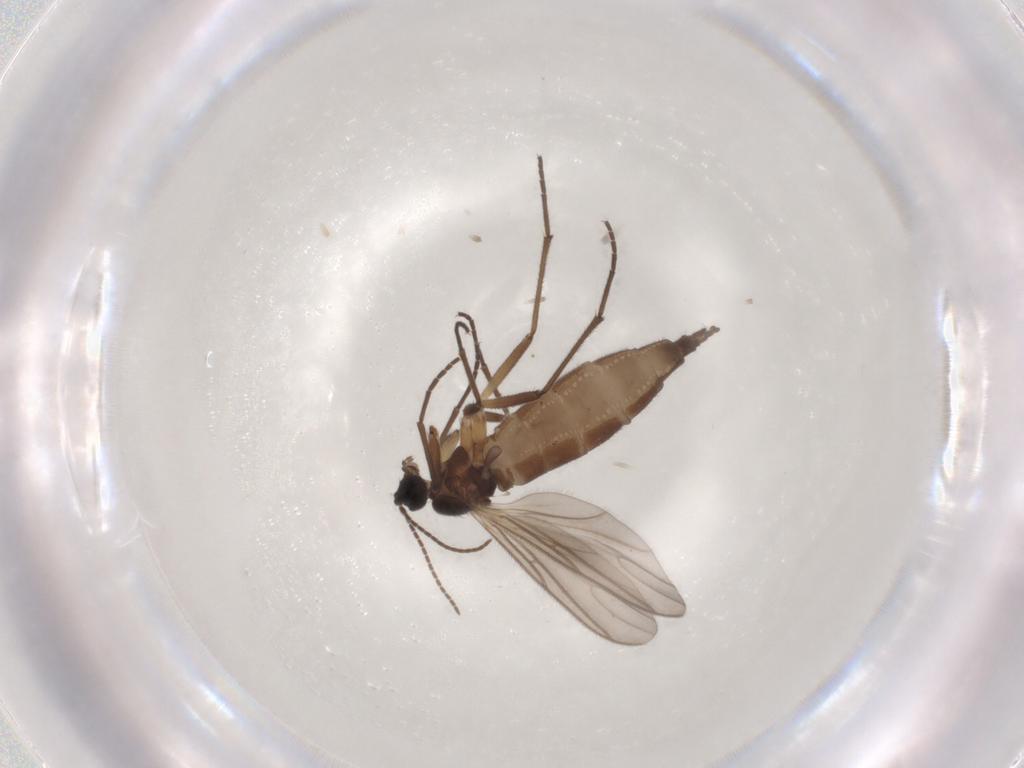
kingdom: Animalia
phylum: Arthropoda
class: Insecta
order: Diptera
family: Sciaridae
